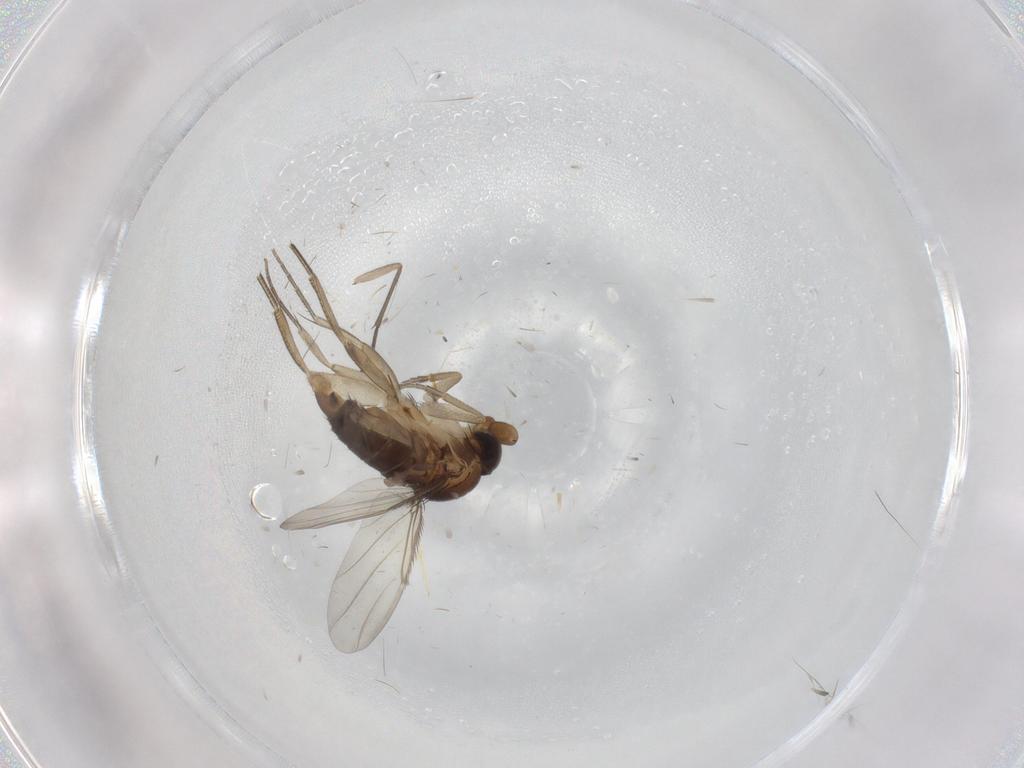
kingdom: Animalia
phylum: Arthropoda
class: Insecta
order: Diptera
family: Phoridae
